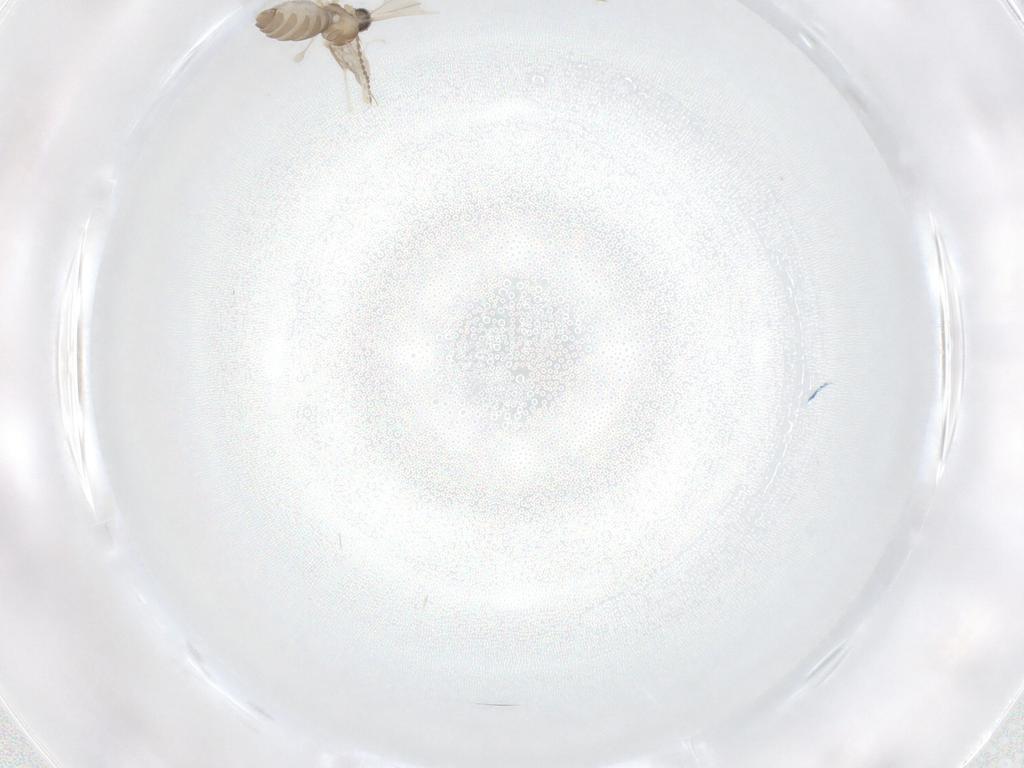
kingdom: Animalia
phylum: Arthropoda
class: Insecta
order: Diptera
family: Cecidomyiidae
